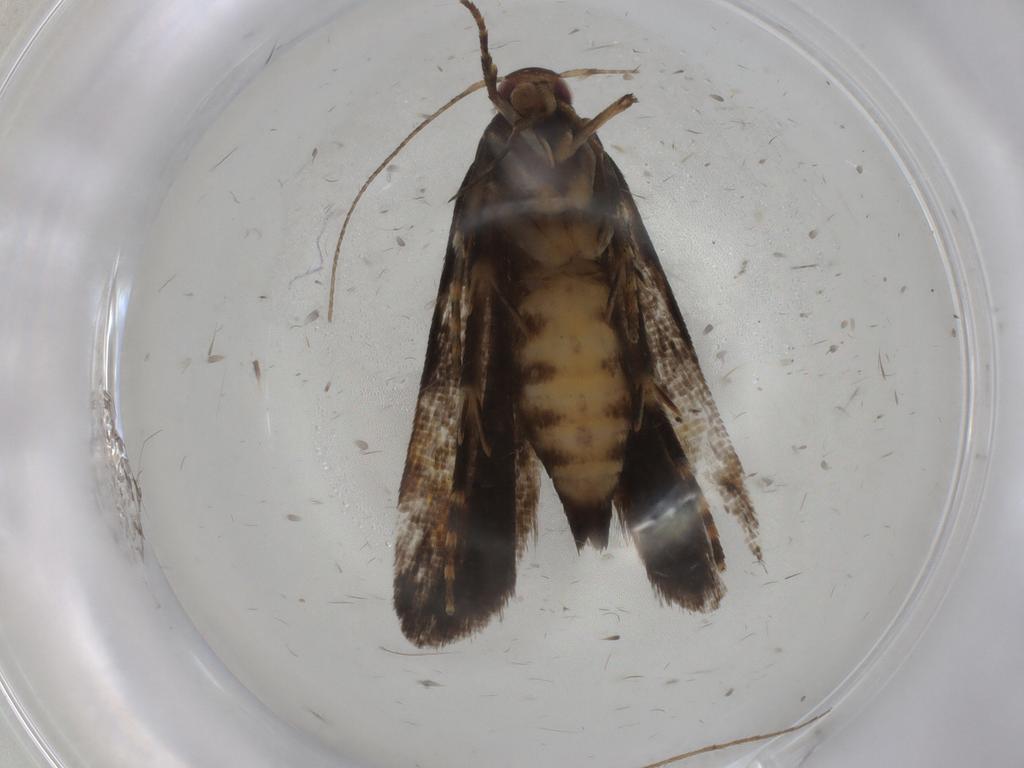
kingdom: Animalia
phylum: Arthropoda
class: Insecta
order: Lepidoptera
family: Gelechiidae
